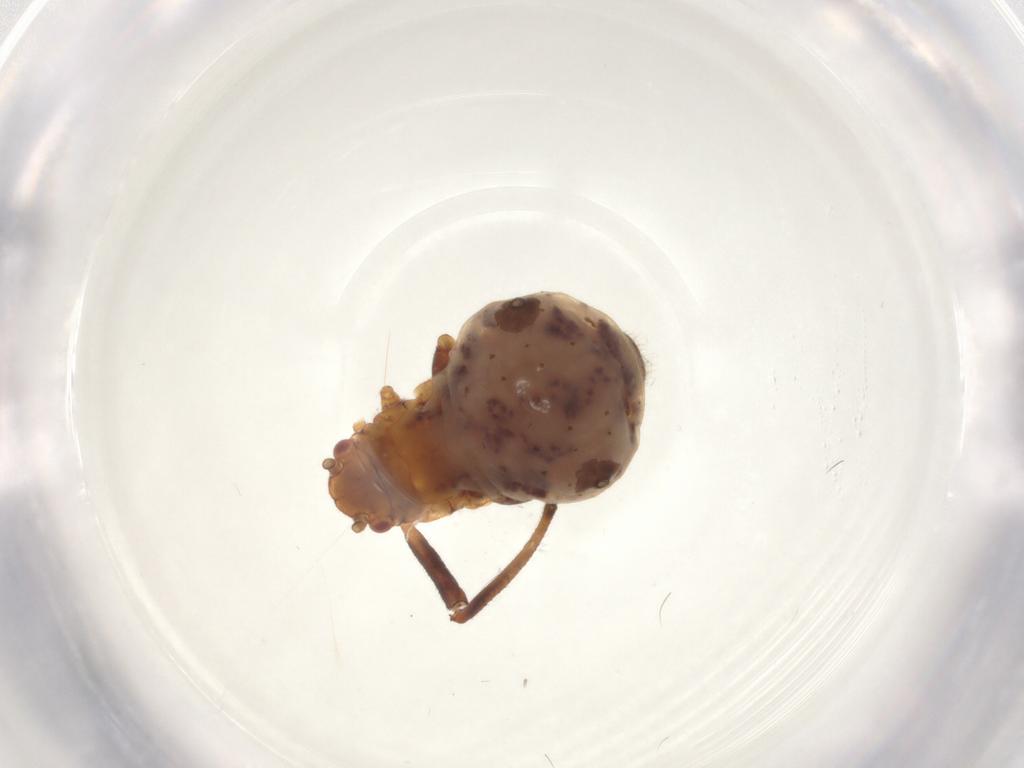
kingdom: Animalia
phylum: Arthropoda
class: Insecta
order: Hemiptera
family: Lachnidae
